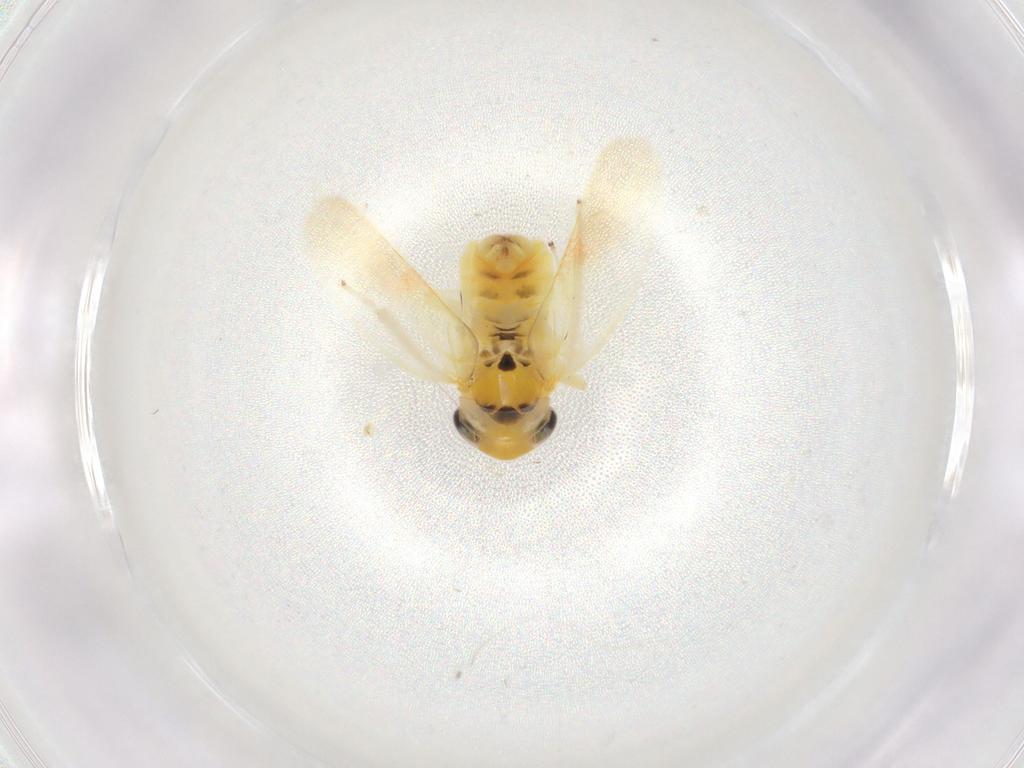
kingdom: Animalia
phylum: Arthropoda
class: Insecta
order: Hemiptera
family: Cicadellidae
